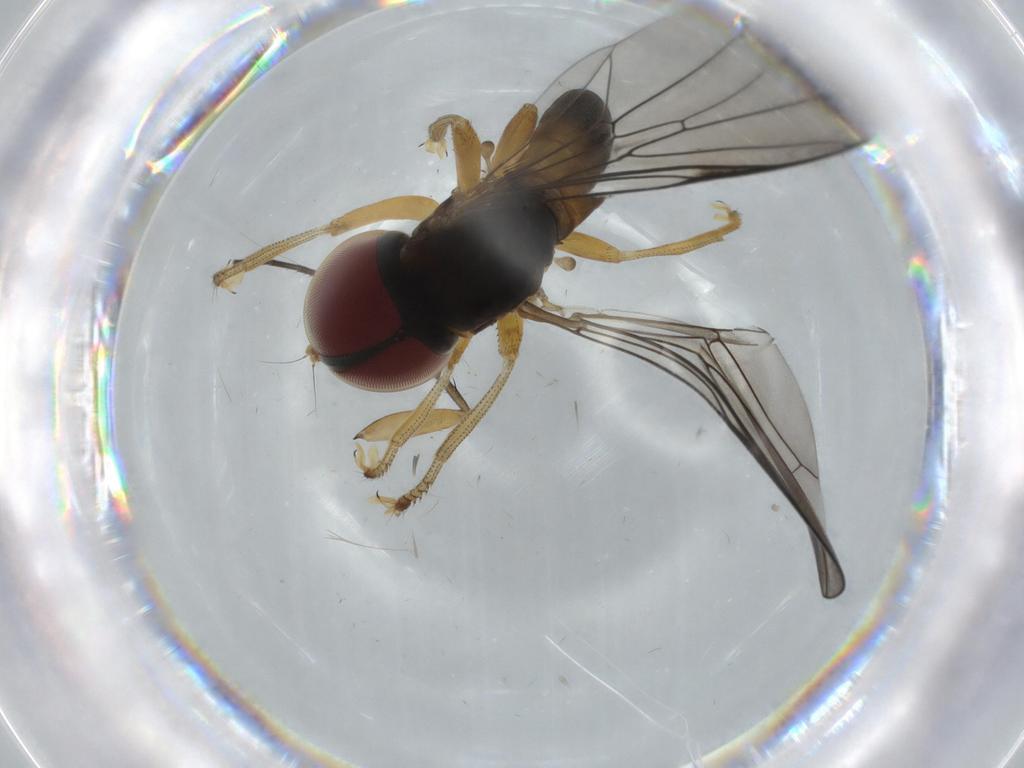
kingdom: Animalia
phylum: Arthropoda
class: Insecta
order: Diptera
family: Pipunculidae
